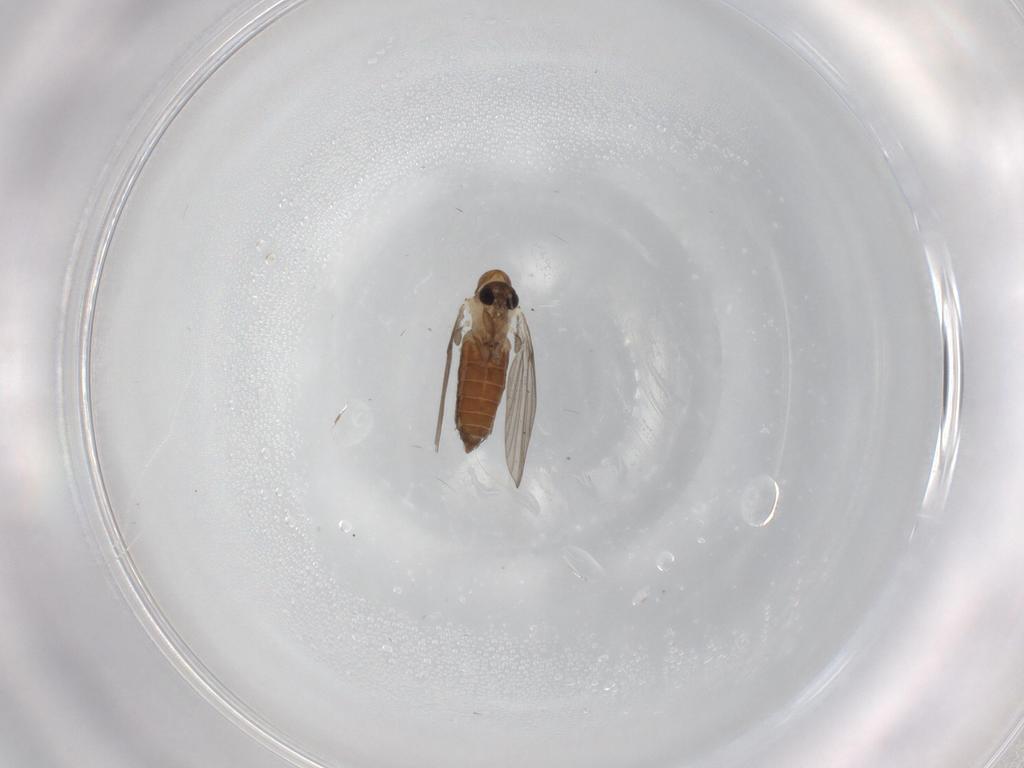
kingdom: Animalia
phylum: Arthropoda
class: Insecta
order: Diptera
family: Psychodidae
